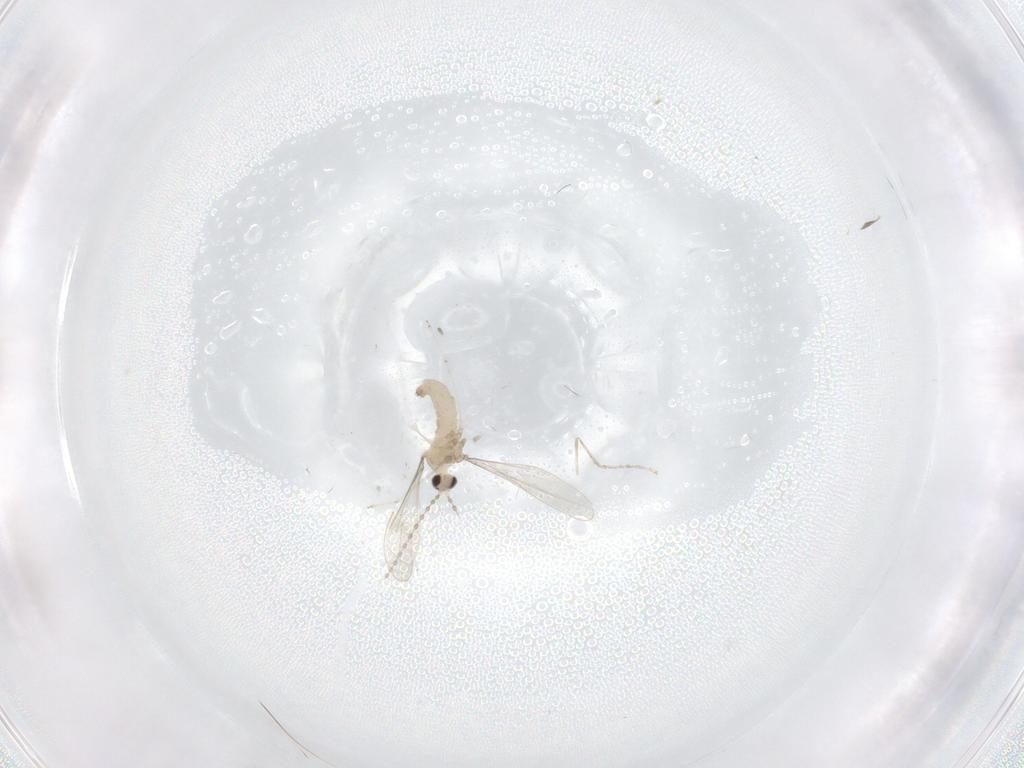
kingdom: Animalia
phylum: Arthropoda
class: Insecta
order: Diptera
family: Cecidomyiidae
